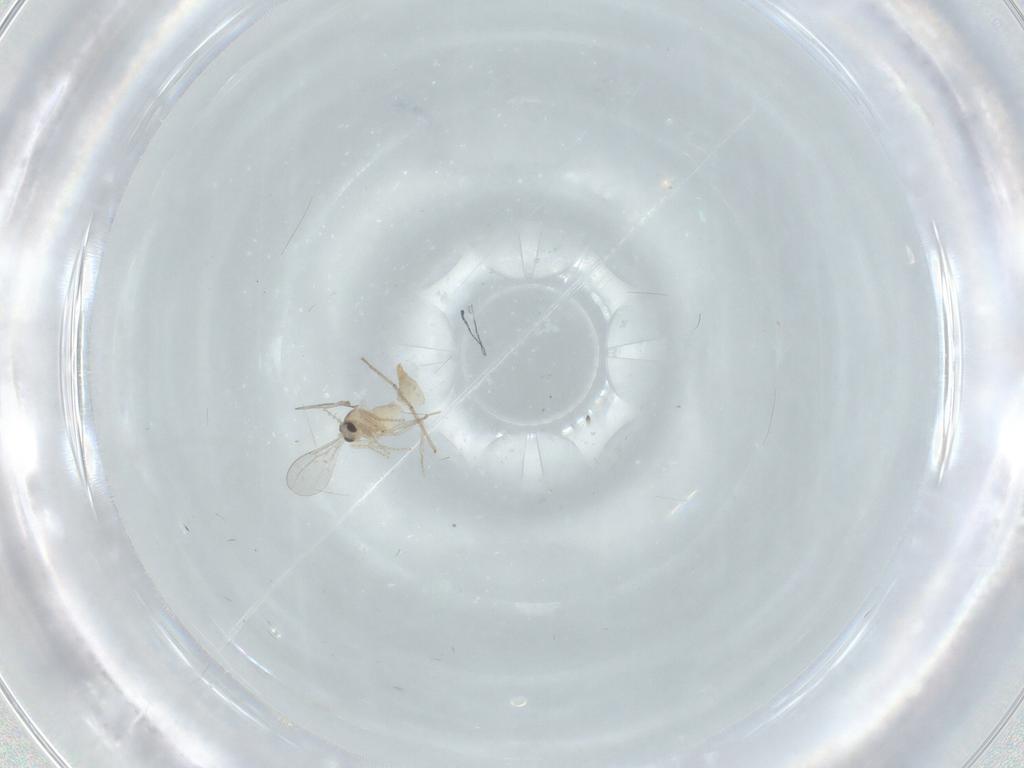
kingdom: Animalia
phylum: Arthropoda
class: Insecta
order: Diptera
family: Cecidomyiidae
